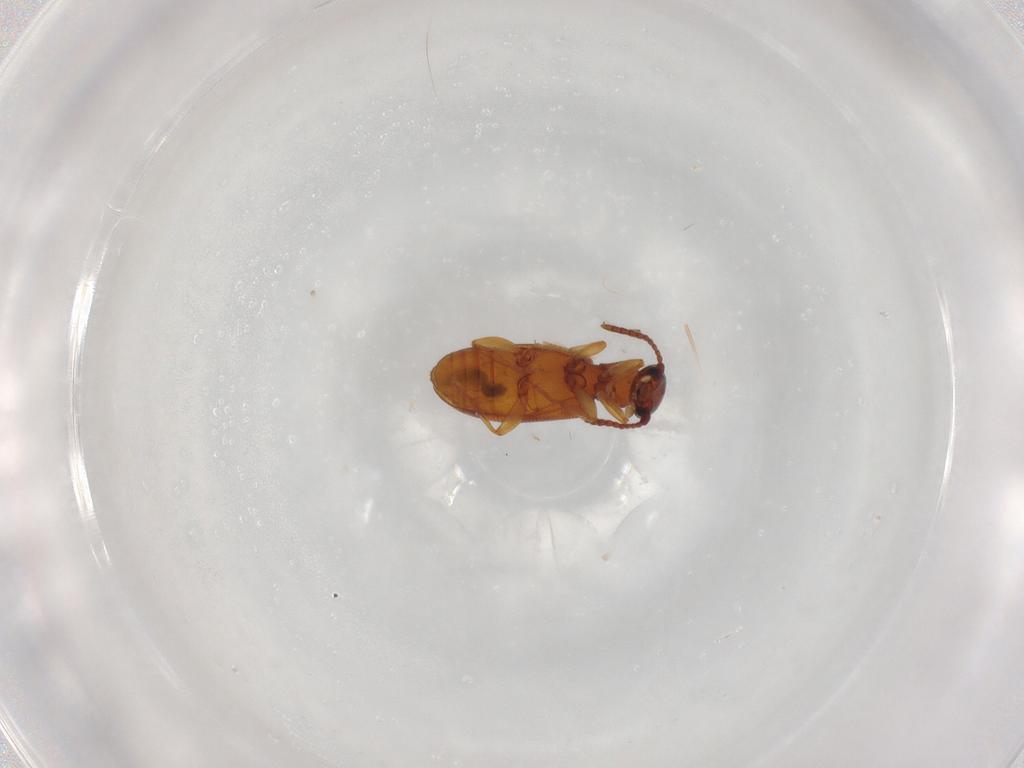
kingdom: Animalia
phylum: Arthropoda
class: Insecta
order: Coleoptera
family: Anthicidae
